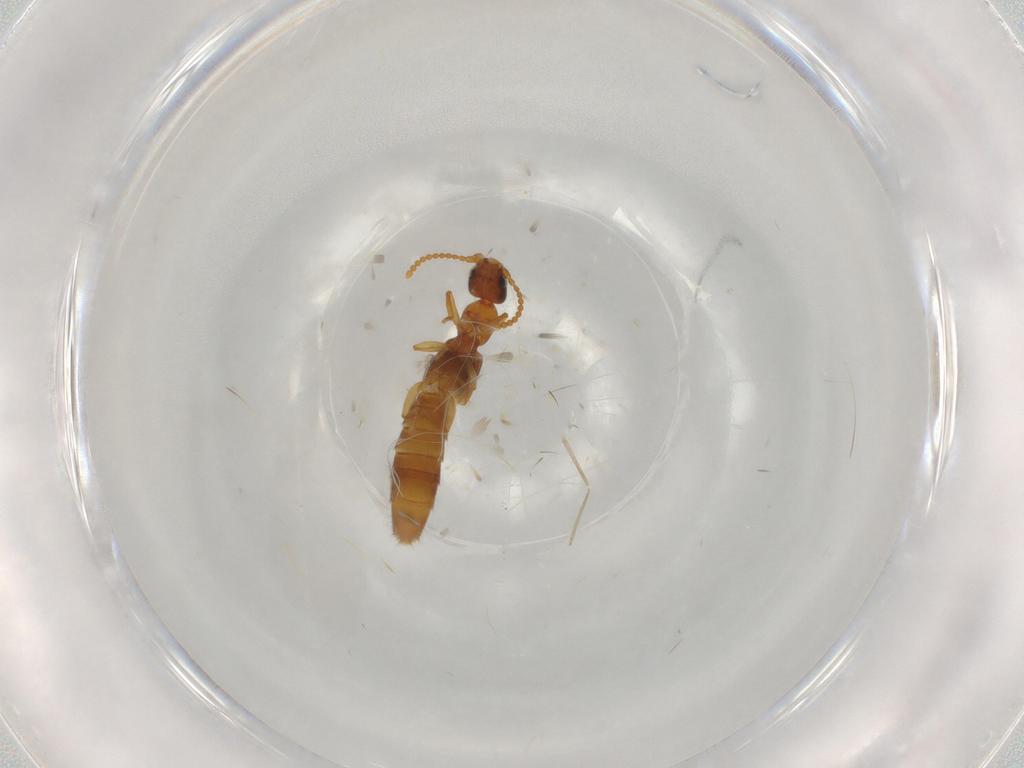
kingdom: Animalia
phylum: Arthropoda
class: Insecta
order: Coleoptera
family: Staphylinidae
